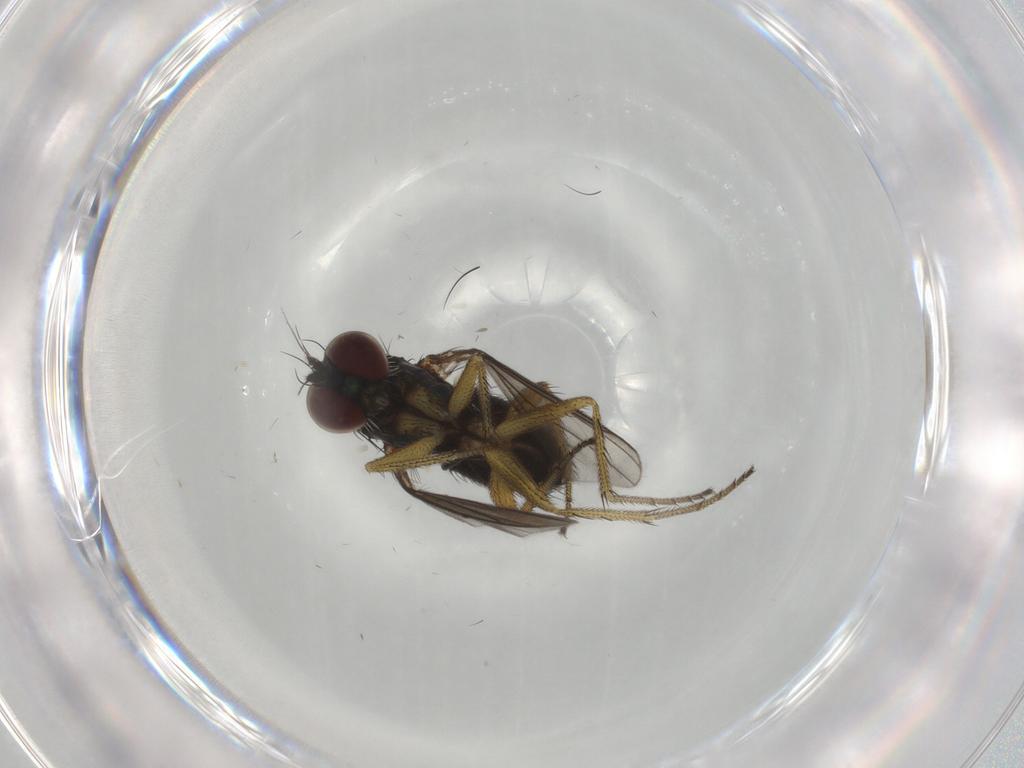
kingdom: Animalia
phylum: Arthropoda
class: Insecta
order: Diptera
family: Dolichopodidae
